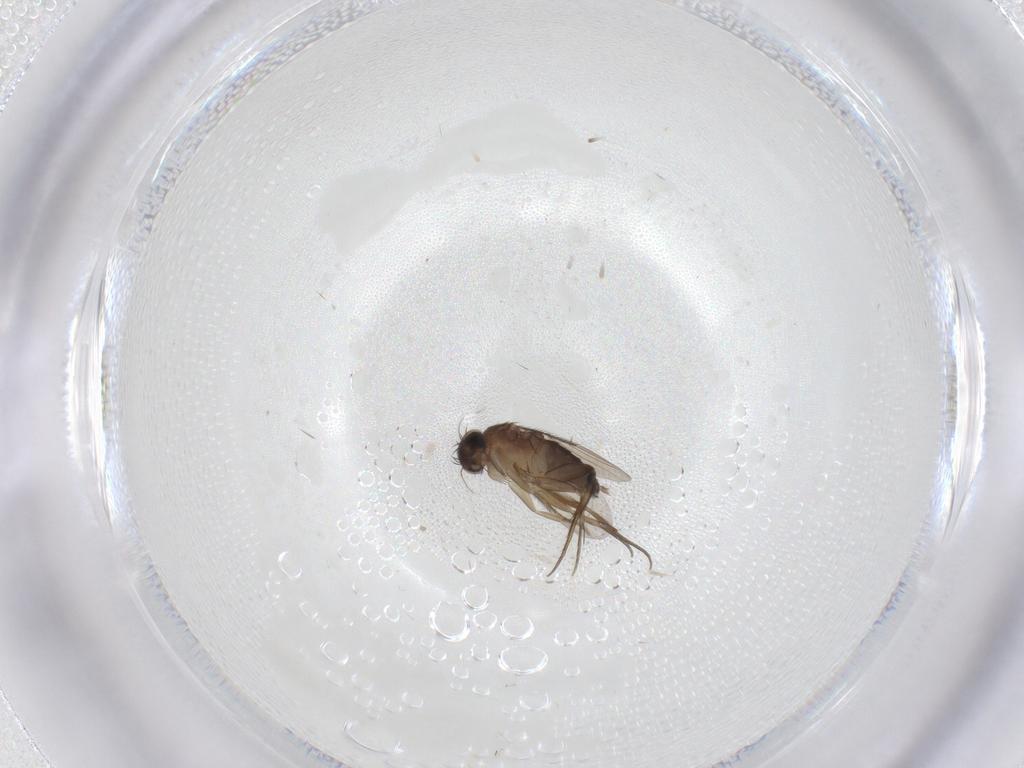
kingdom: Animalia
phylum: Arthropoda
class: Insecta
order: Diptera
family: Phoridae
